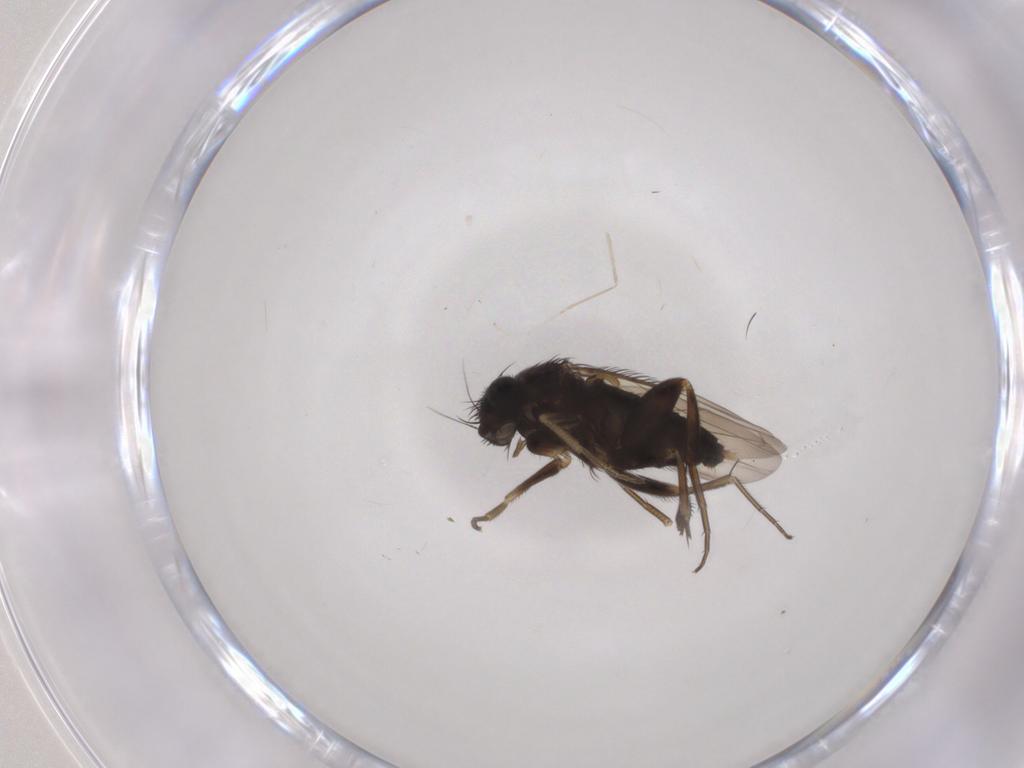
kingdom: Animalia
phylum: Arthropoda
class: Insecta
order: Diptera
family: Phoridae
